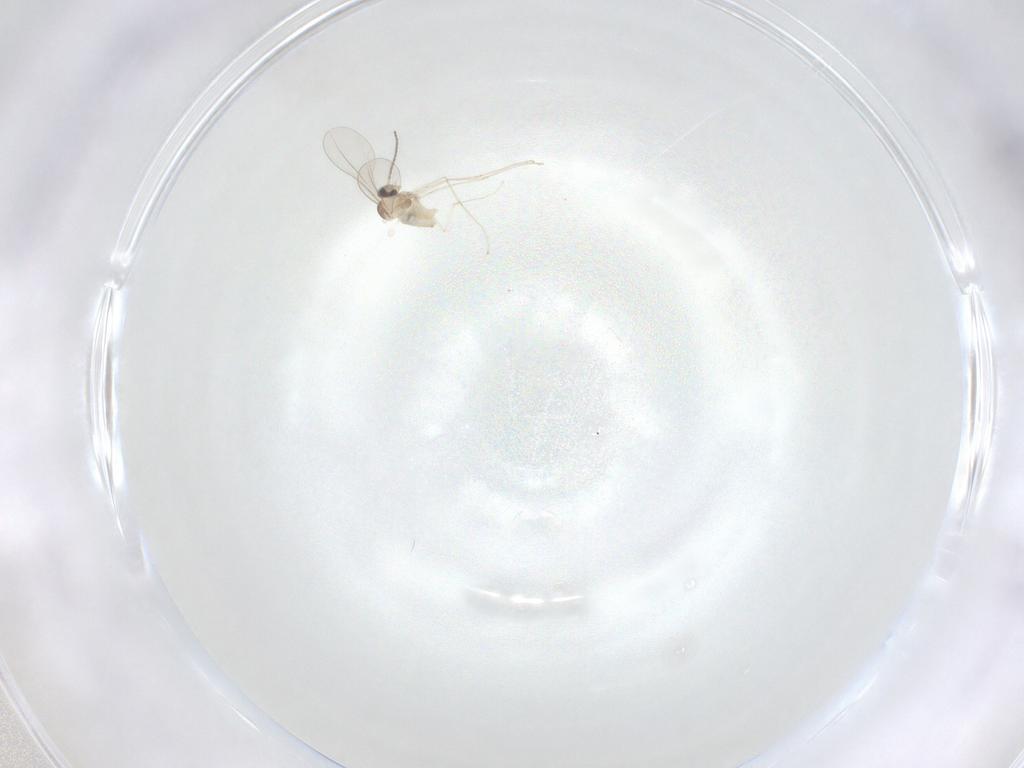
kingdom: Animalia
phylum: Arthropoda
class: Insecta
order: Diptera
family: Cecidomyiidae
